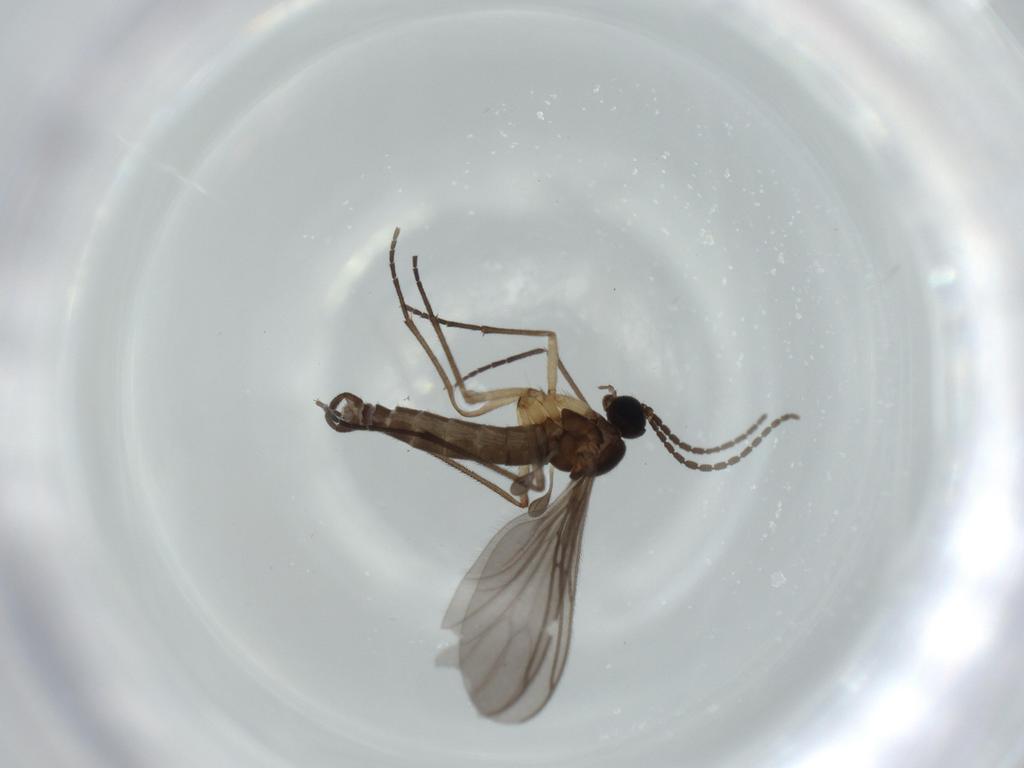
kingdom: Animalia
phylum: Arthropoda
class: Insecta
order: Diptera
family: Sciaridae
